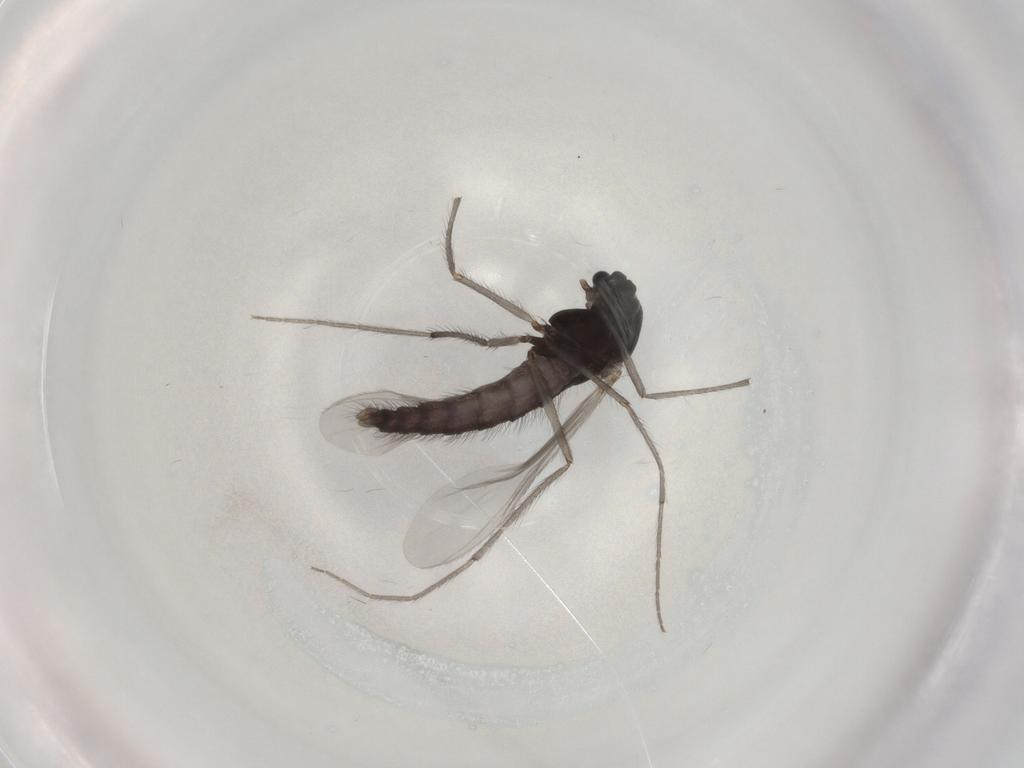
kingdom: Animalia
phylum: Arthropoda
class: Insecta
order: Diptera
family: Chironomidae
